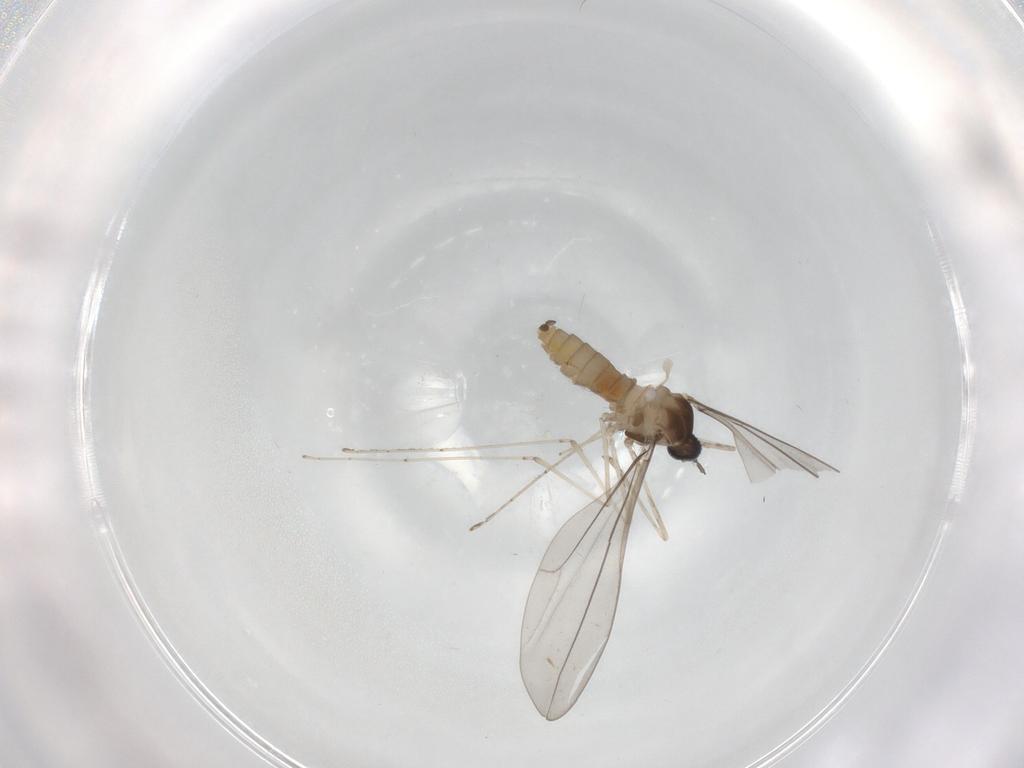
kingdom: Animalia
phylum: Arthropoda
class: Insecta
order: Diptera
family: Cecidomyiidae
